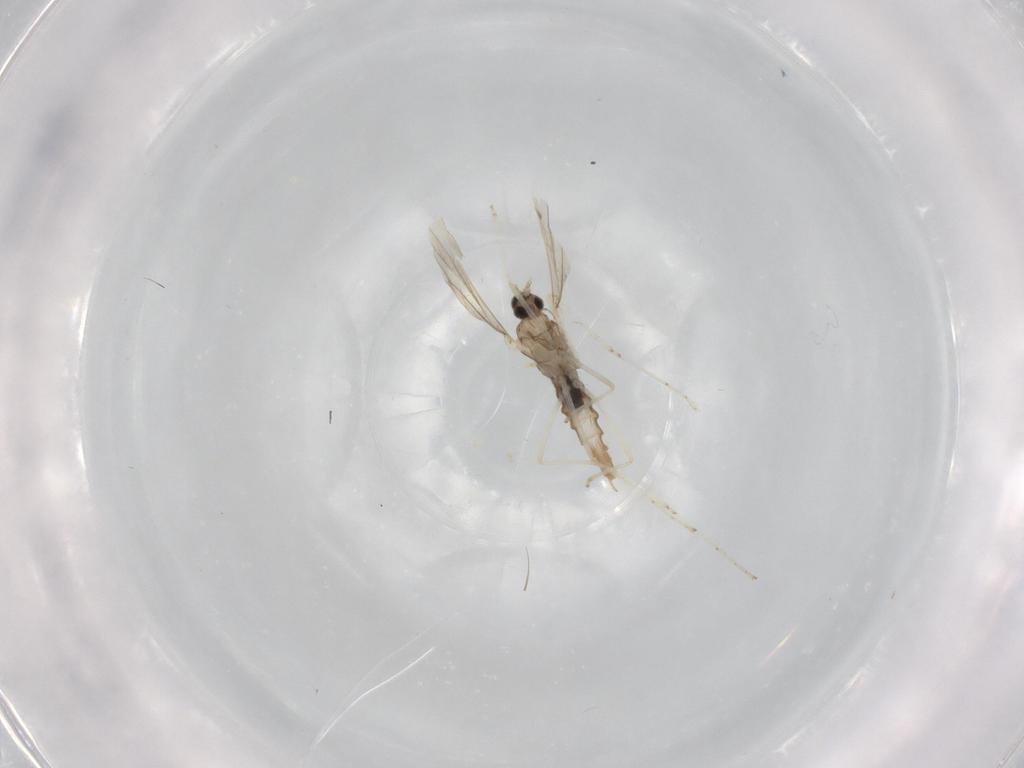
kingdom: Animalia
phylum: Arthropoda
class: Insecta
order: Diptera
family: Cecidomyiidae
